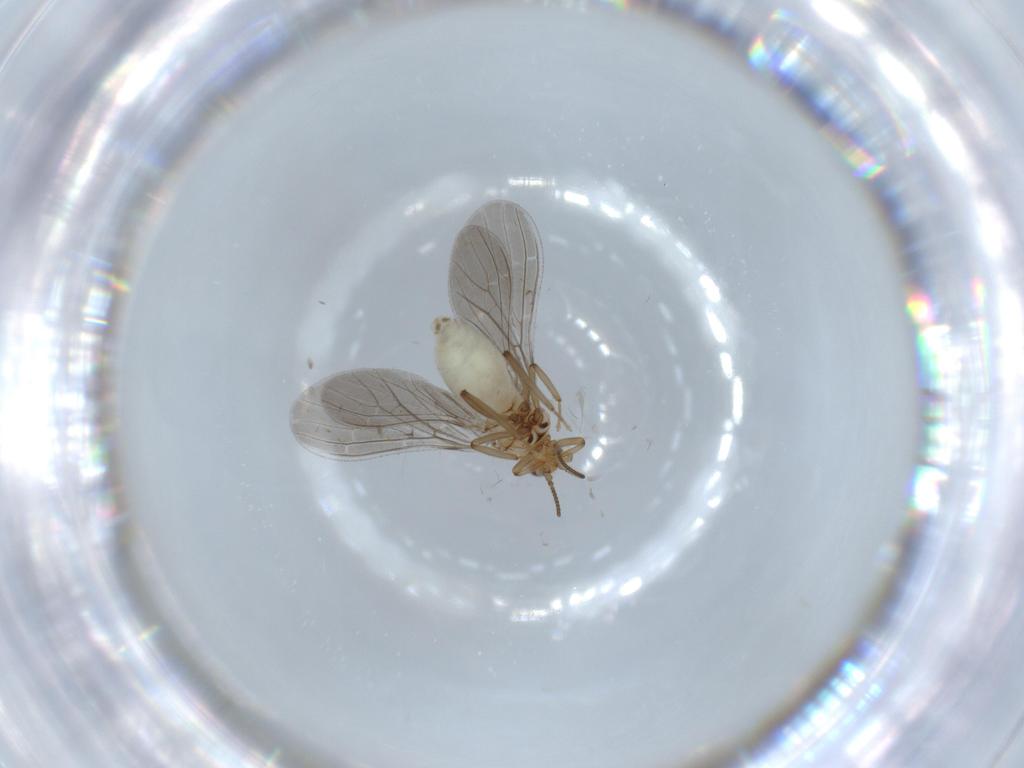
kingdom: Animalia
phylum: Arthropoda
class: Insecta
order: Neuroptera
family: Coniopterygidae
